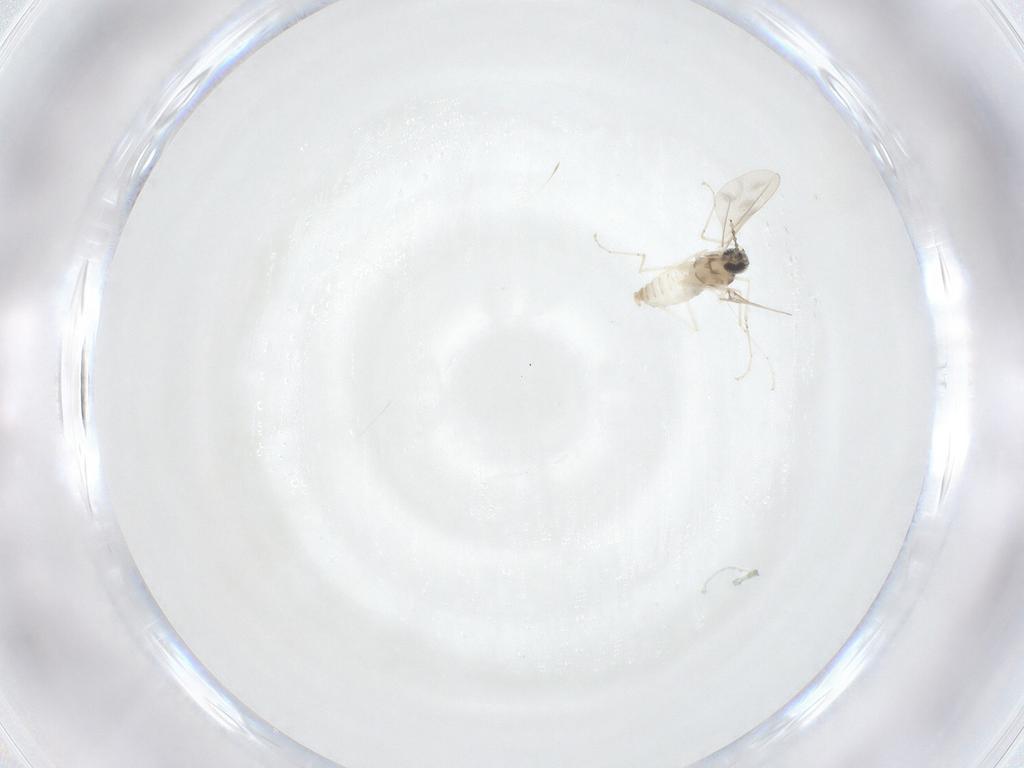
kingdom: Animalia
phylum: Arthropoda
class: Insecta
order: Diptera
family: Cecidomyiidae
